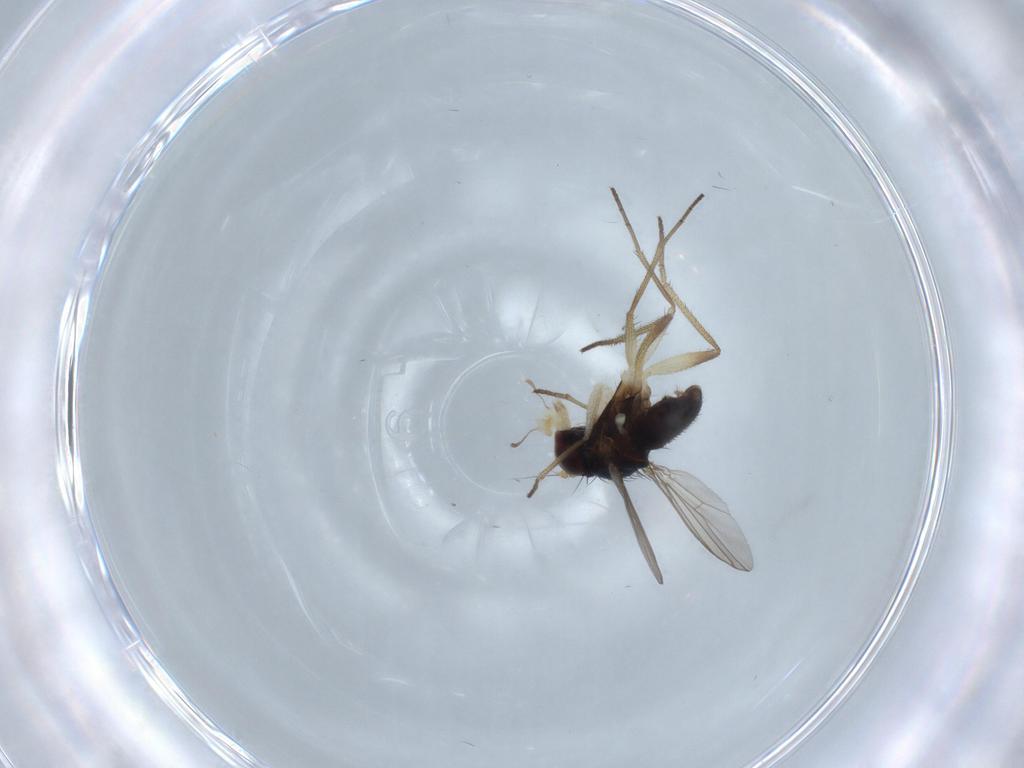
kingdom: Animalia
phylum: Arthropoda
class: Insecta
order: Diptera
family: Dolichopodidae
